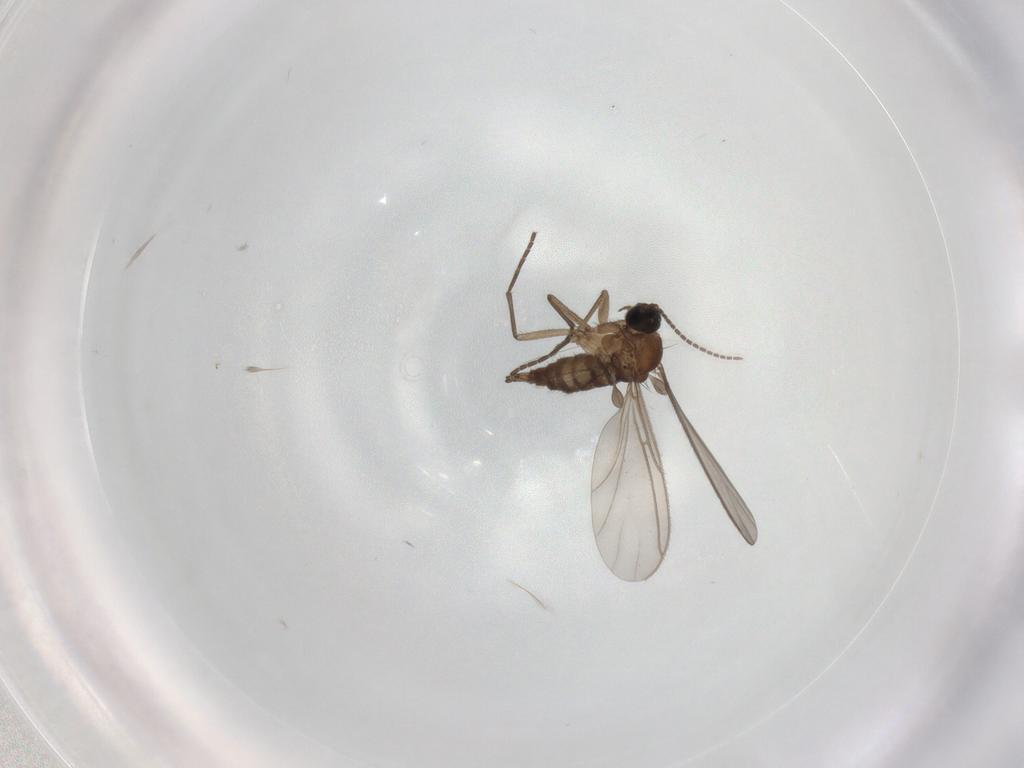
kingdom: Animalia
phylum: Arthropoda
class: Insecta
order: Diptera
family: Sciaridae
